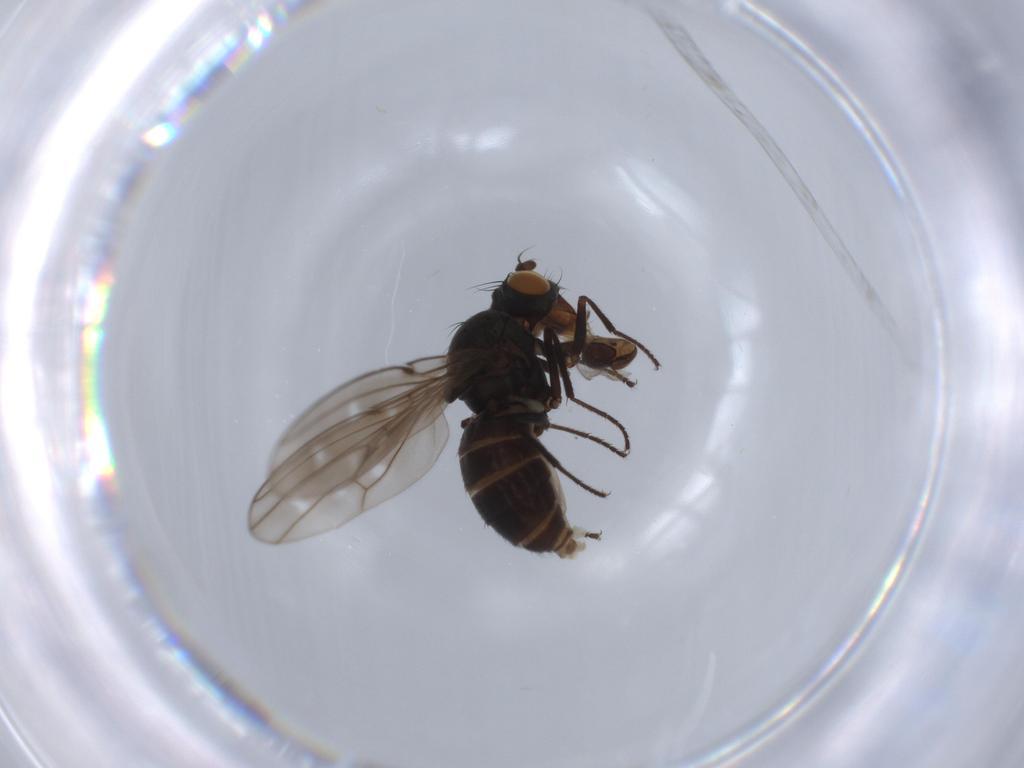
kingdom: Animalia
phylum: Arthropoda
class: Insecta
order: Diptera
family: Ephydridae
